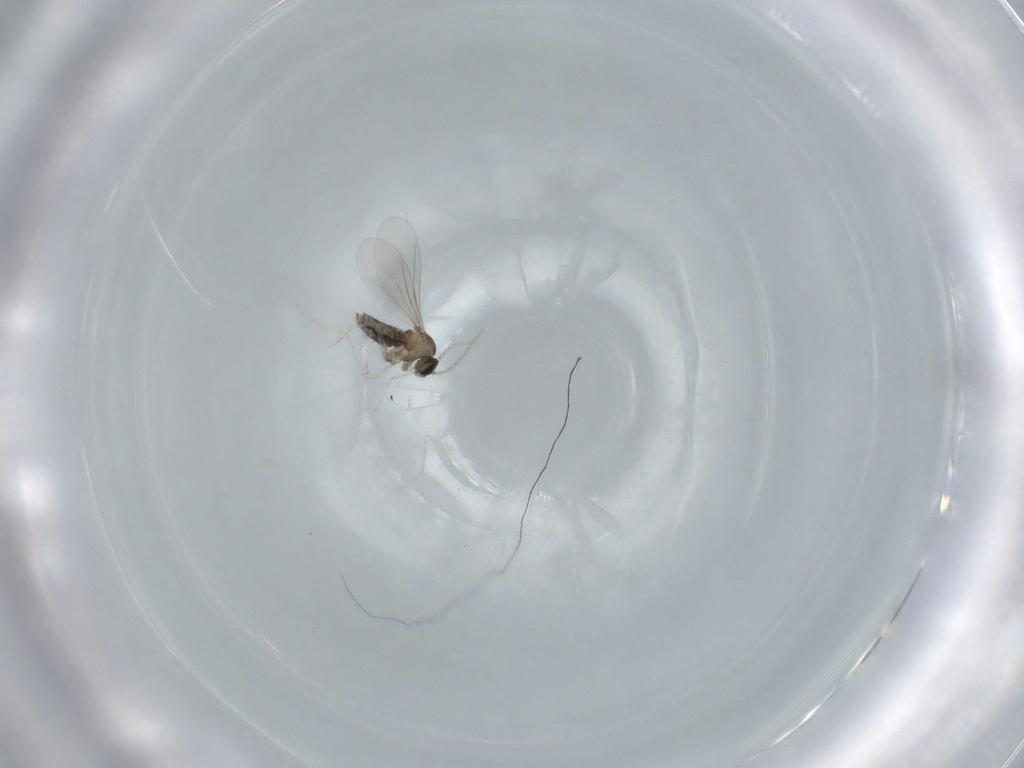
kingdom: Animalia
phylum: Arthropoda
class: Insecta
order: Diptera
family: Cecidomyiidae
